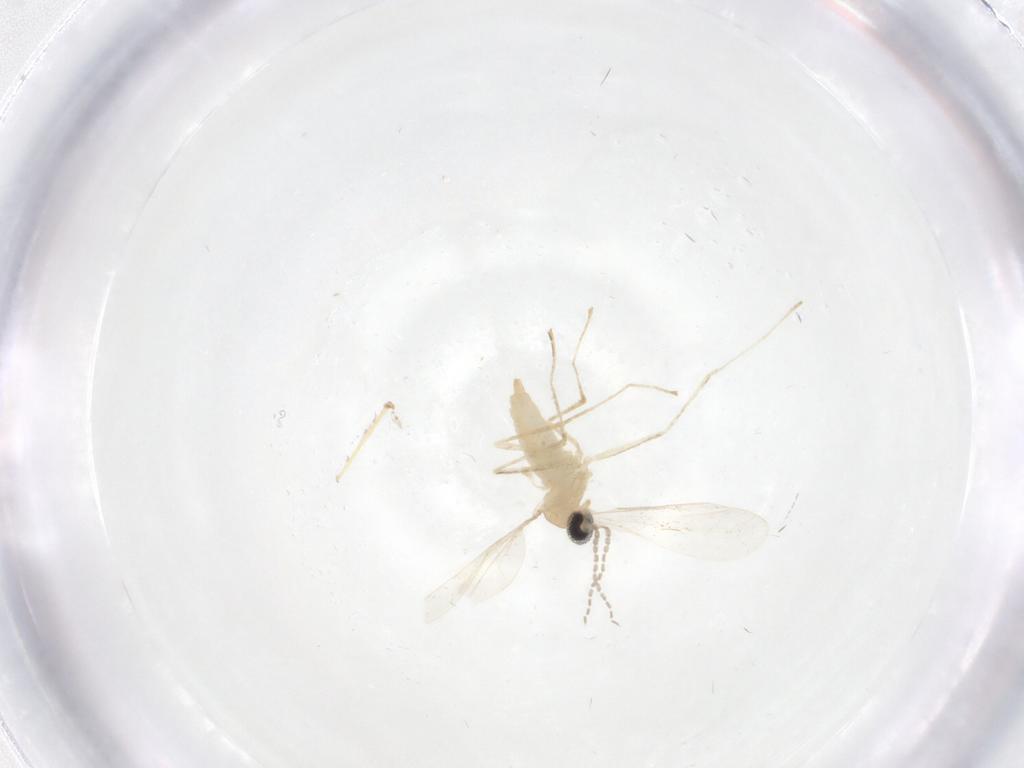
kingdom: Animalia
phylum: Arthropoda
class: Insecta
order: Diptera
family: Cecidomyiidae
